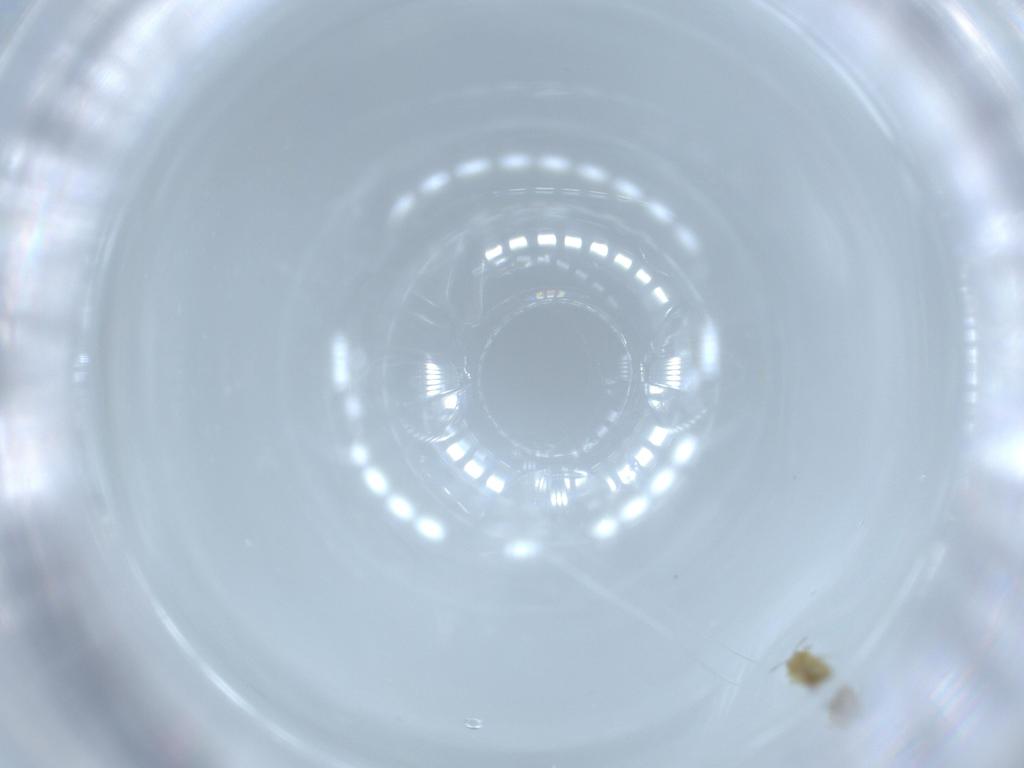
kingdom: Animalia
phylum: Arthropoda
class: Insecta
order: Thysanoptera
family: Thripidae
